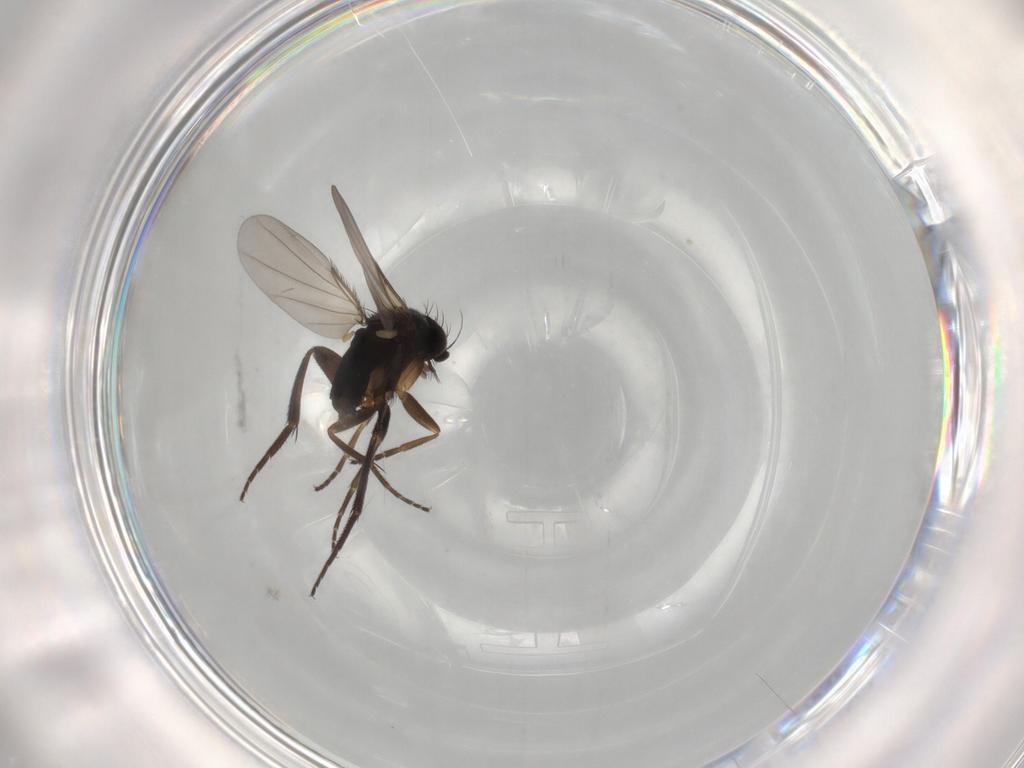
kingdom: Animalia
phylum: Arthropoda
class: Insecta
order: Diptera
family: Phoridae
